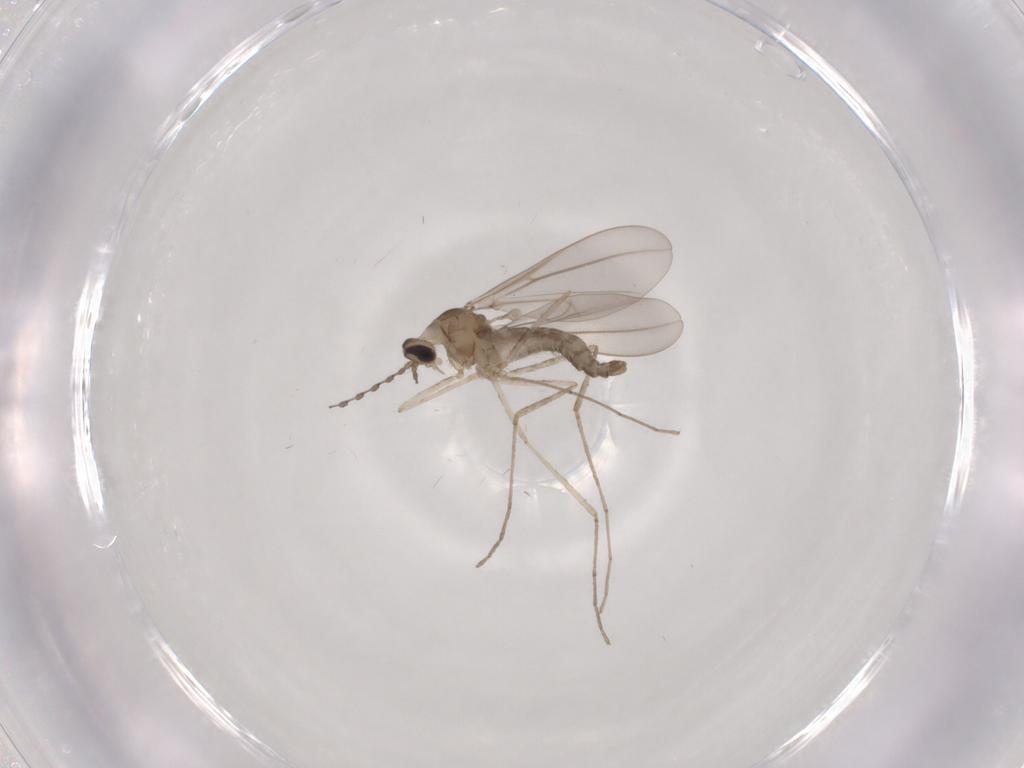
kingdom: Animalia
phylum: Arthropoda
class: Insecta
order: Diptera
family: Cecidomyiidae
